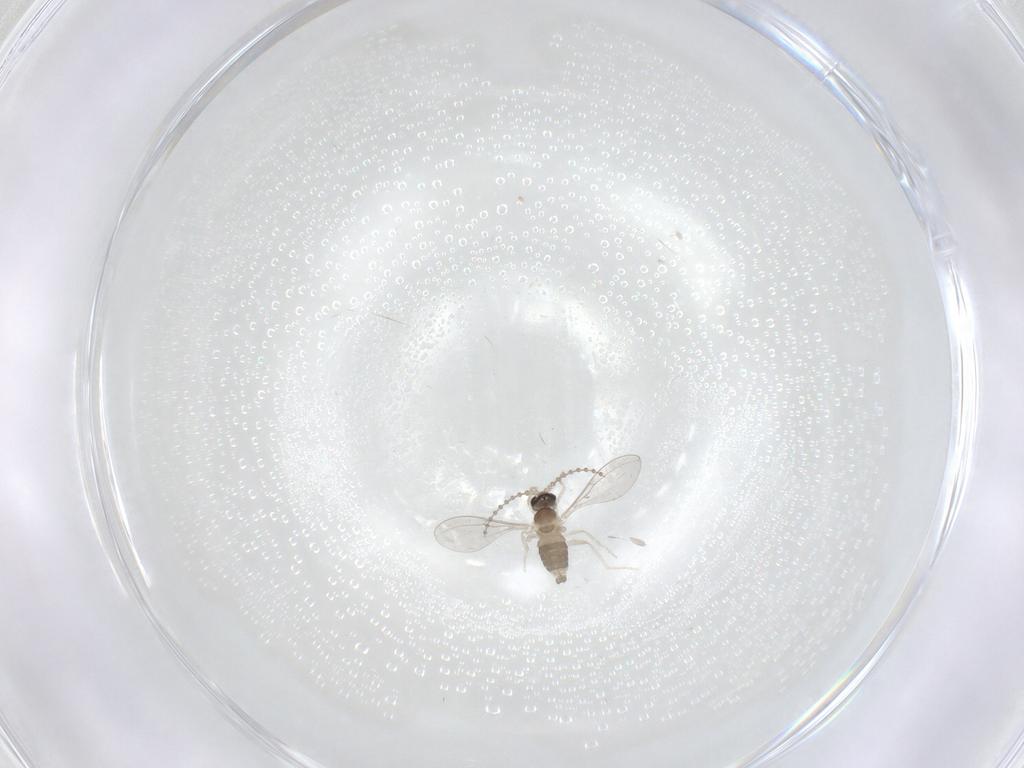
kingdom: Animalia
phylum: Arthropoda
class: Insecta
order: Diptera
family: Cecidomyiidae
